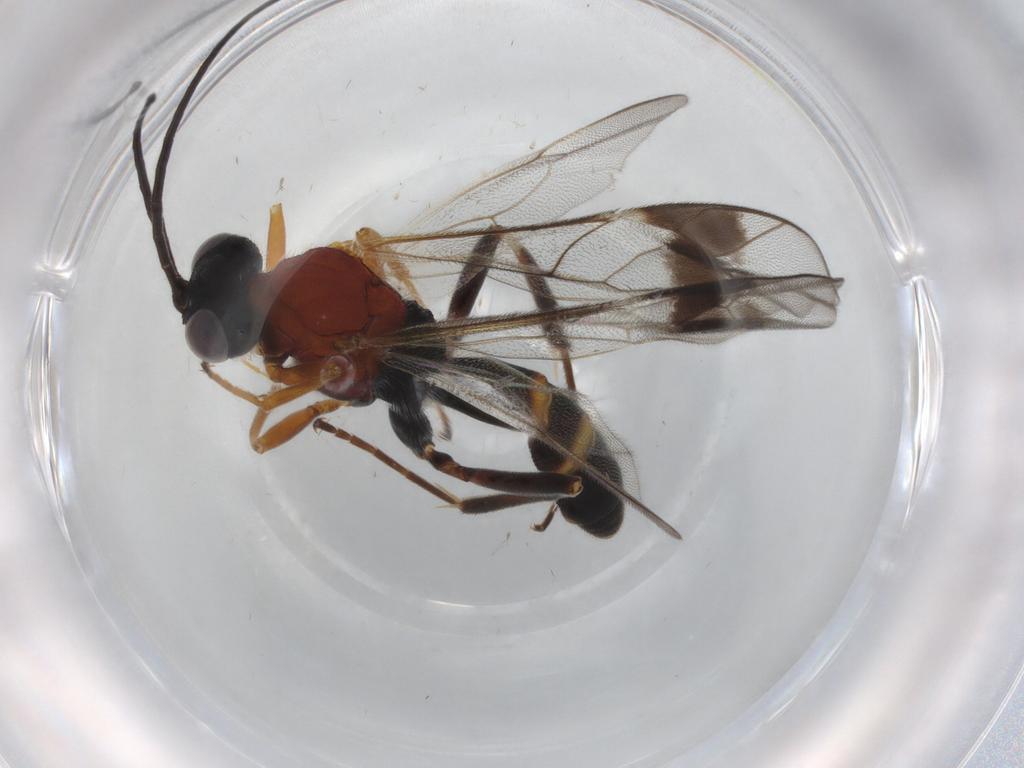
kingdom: Animalia
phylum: Arthropoda
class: Insecta
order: Hymenoptera
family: Ichneumonidae
